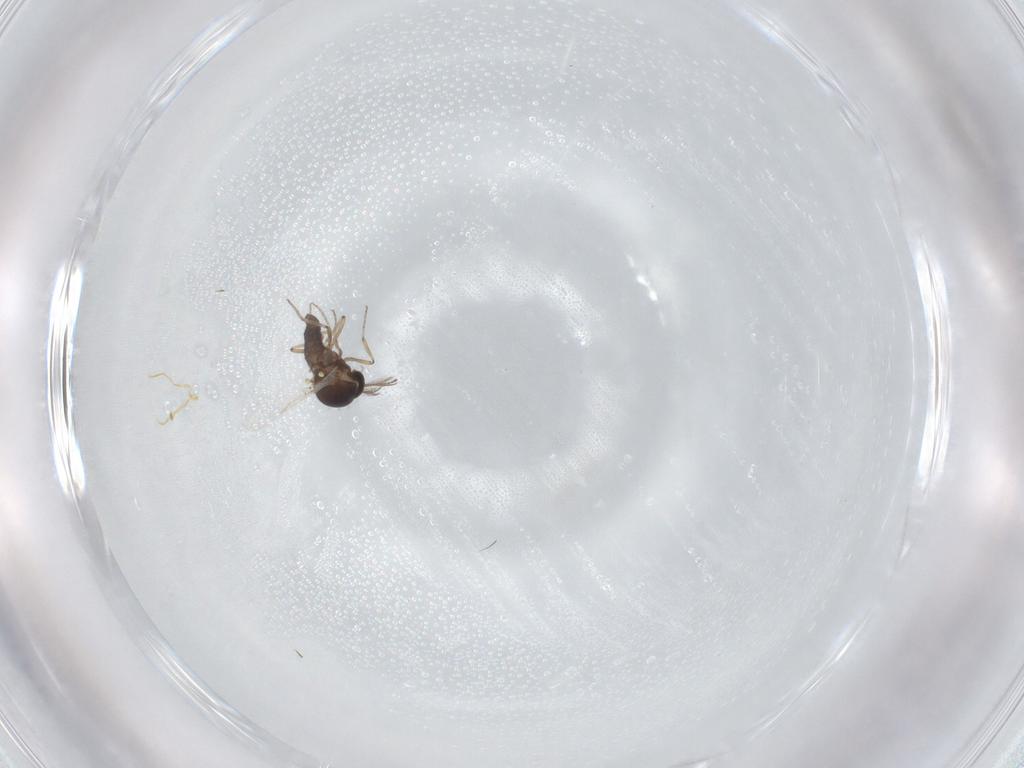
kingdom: Animalia
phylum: Arthropoda
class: Insecta
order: Diptera
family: Ceratopogonidae
